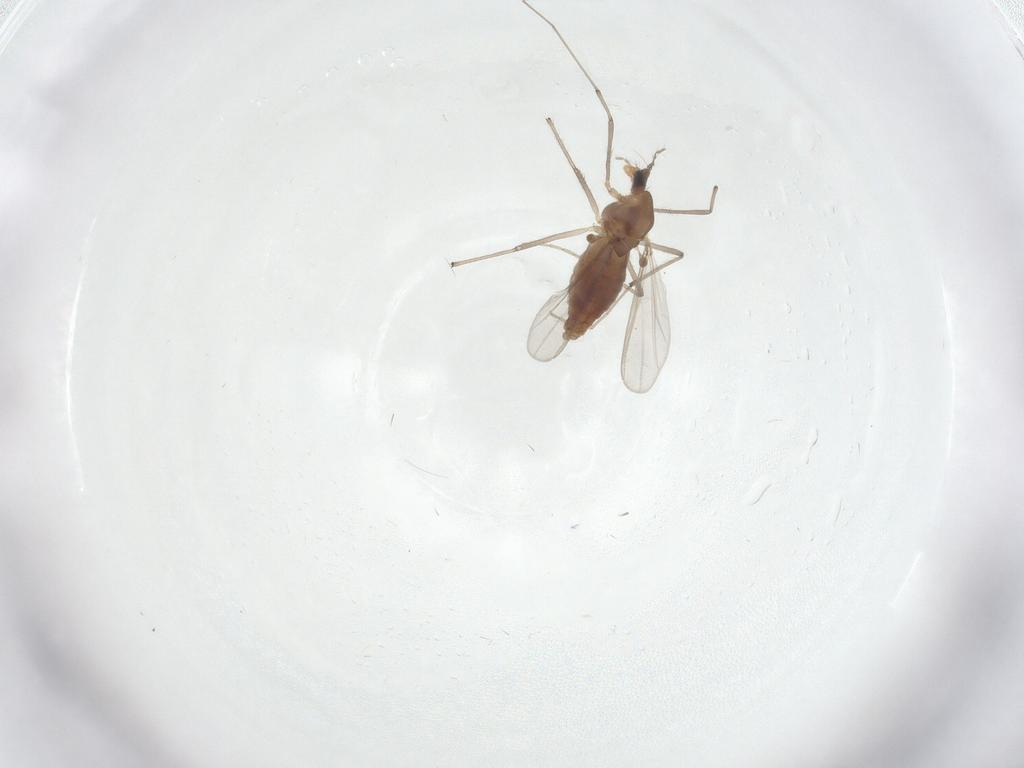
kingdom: Animalia
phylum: Arthropoda
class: Insecta
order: Diptera
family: Chironomidae
